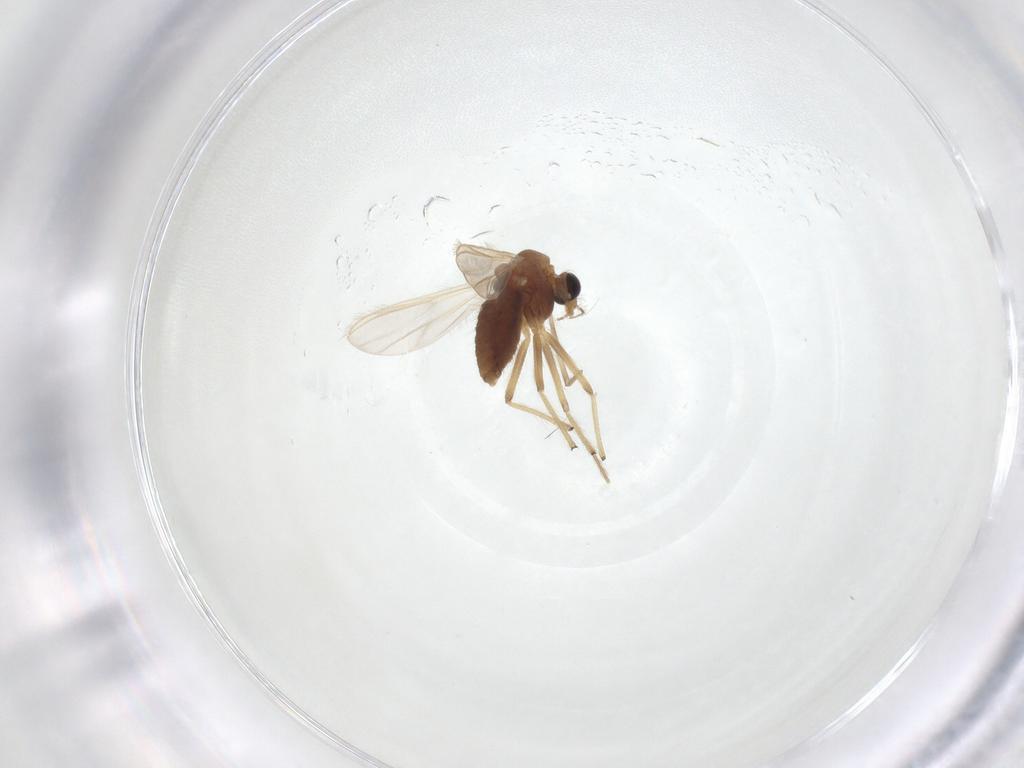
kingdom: Animalia
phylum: Arthropoda
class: Insecta
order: Diptera
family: Chironomidae
